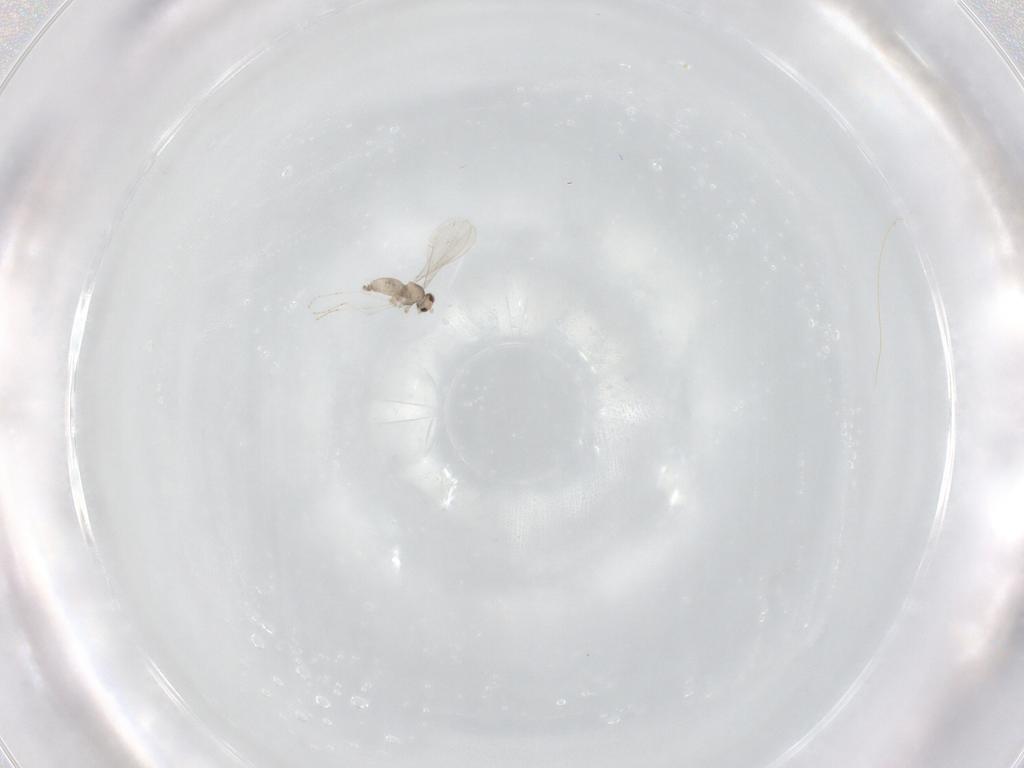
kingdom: Animalia
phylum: Arthropoda
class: Insecta
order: Diptera
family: Cecidomyiidae
